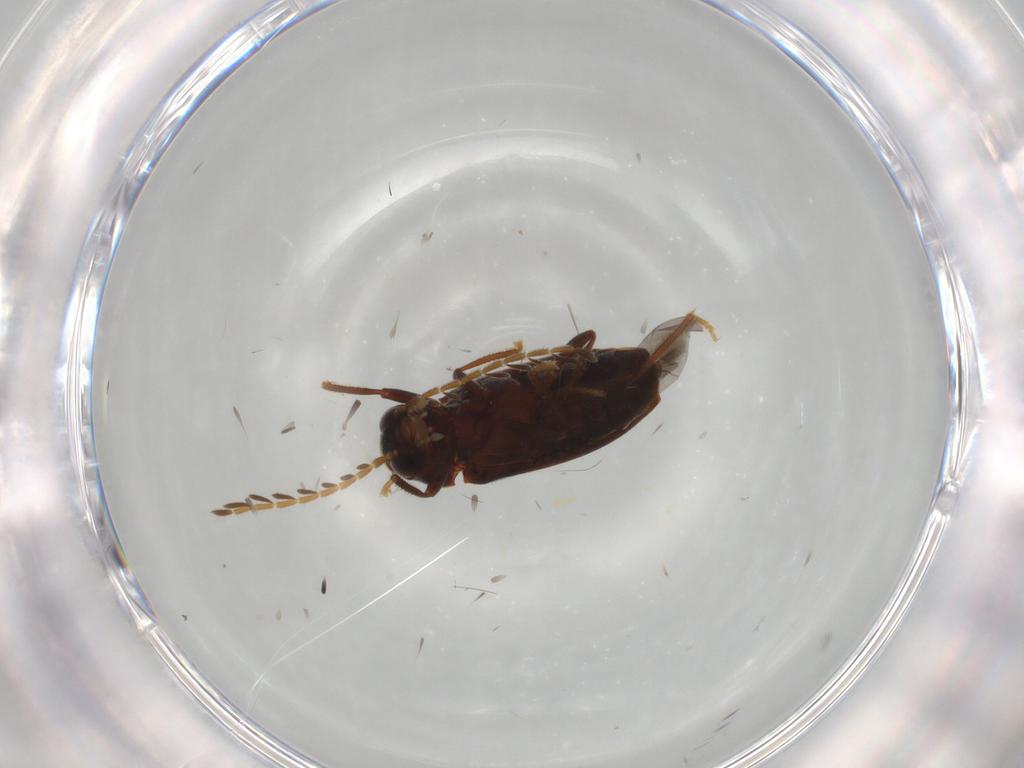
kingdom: Animalia
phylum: Arthropoda
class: Insecta
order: Coleoptera
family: Ptilodactylidae
